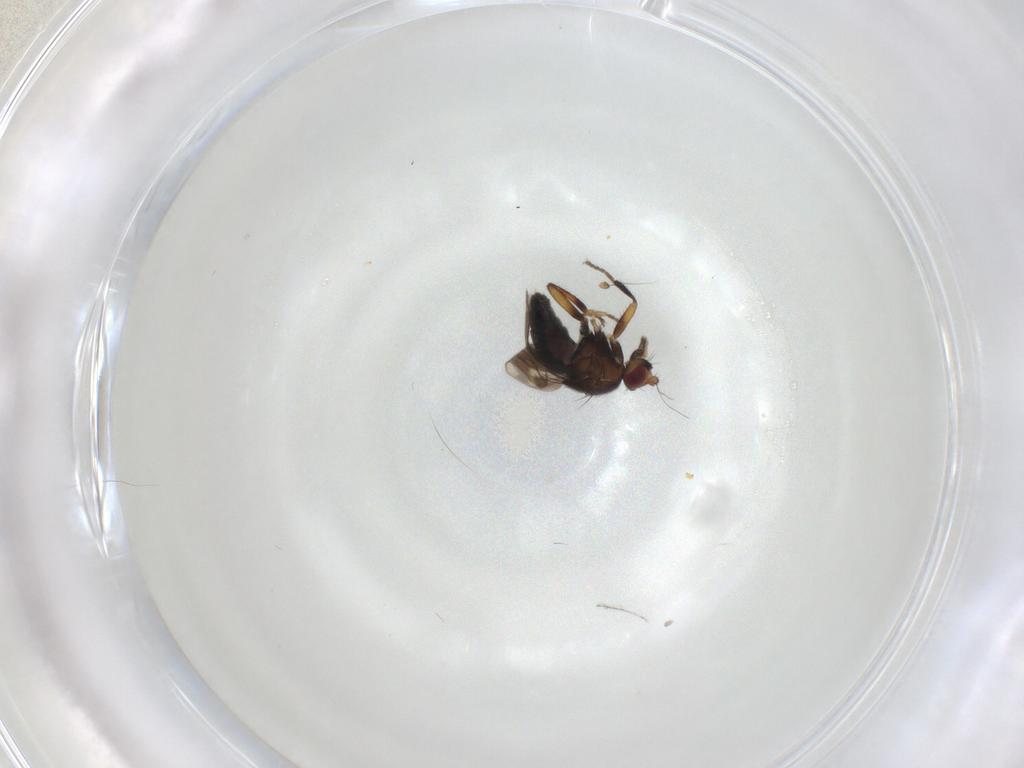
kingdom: Animalia
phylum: Arthropoda
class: Insecta
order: Diptera
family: Sphaeroceridae
